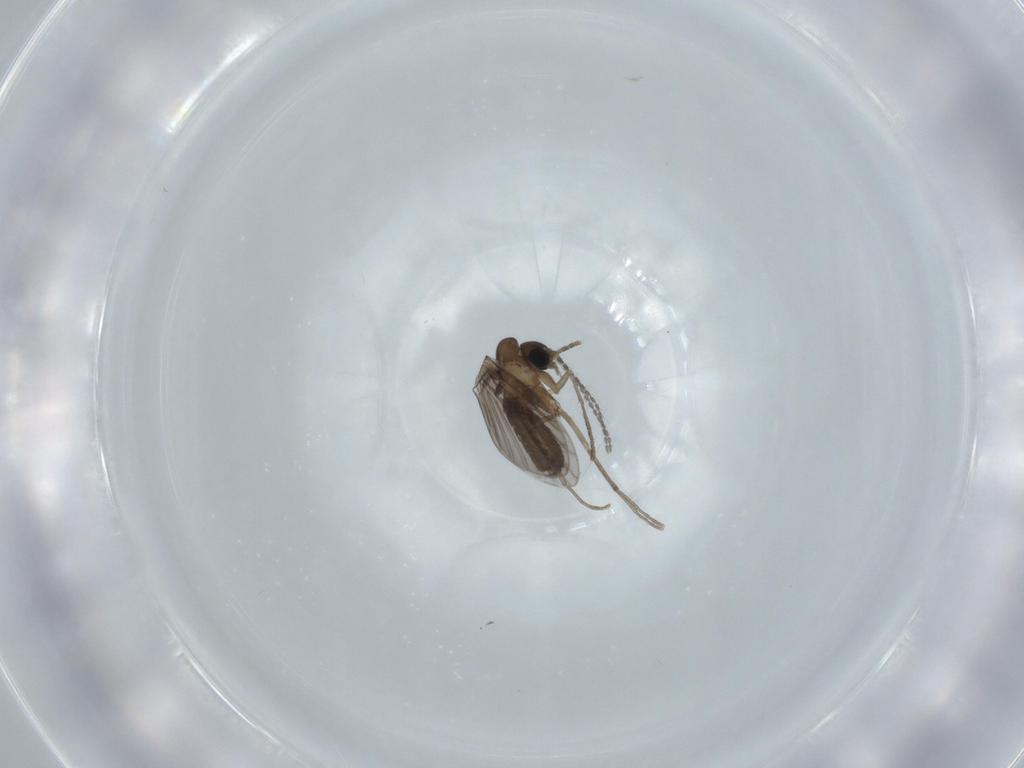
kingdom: Animalia
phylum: Arthropoda
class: Insecta
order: Diptera
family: Psychodidae
